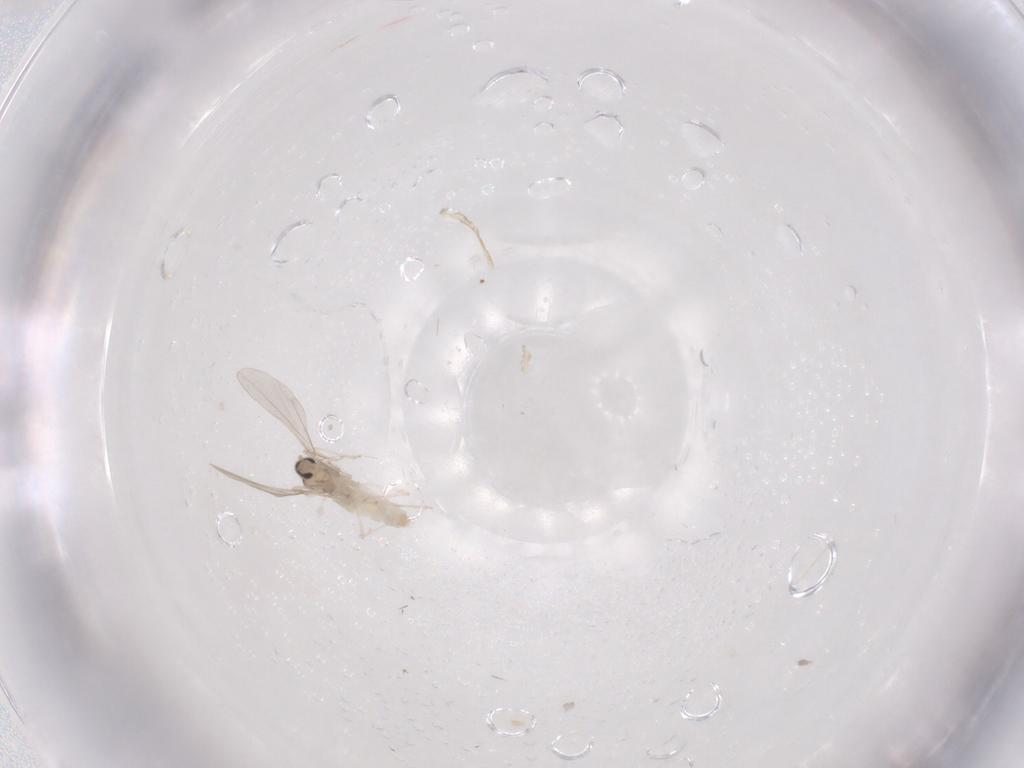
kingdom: Animalia
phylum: Arthropoda
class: Insecta
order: Diptera
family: Cecidomyiidae
